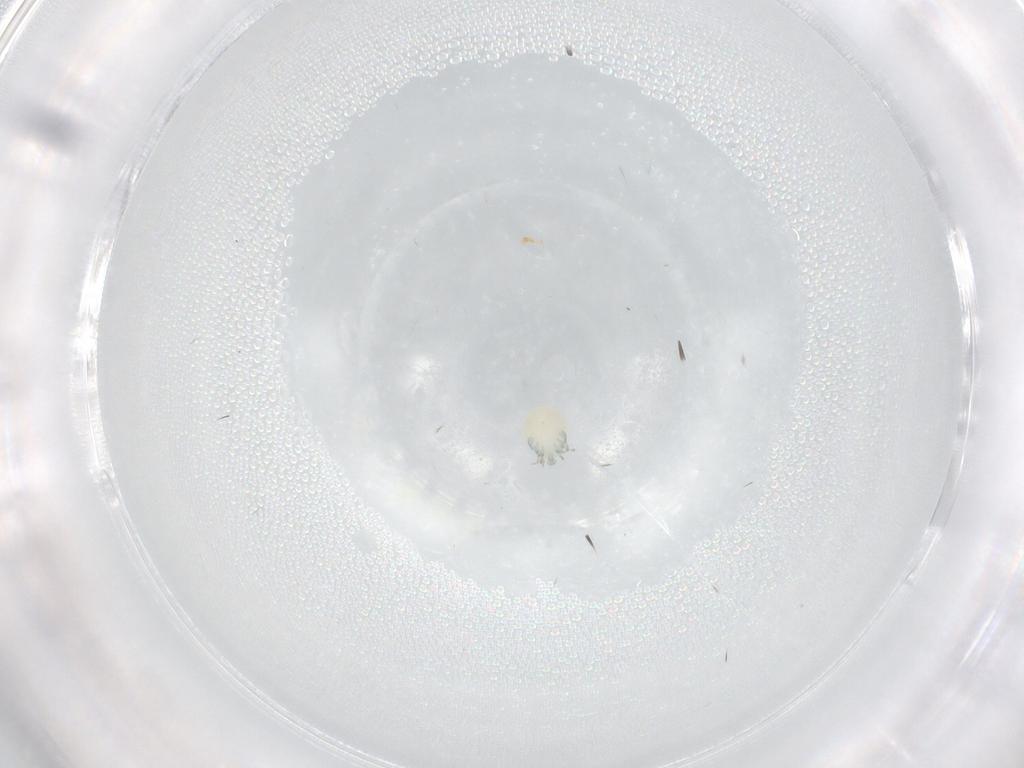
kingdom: Animalia
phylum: Arthropoda
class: Arachnida
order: Trombidiformes
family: Arrenuridae
